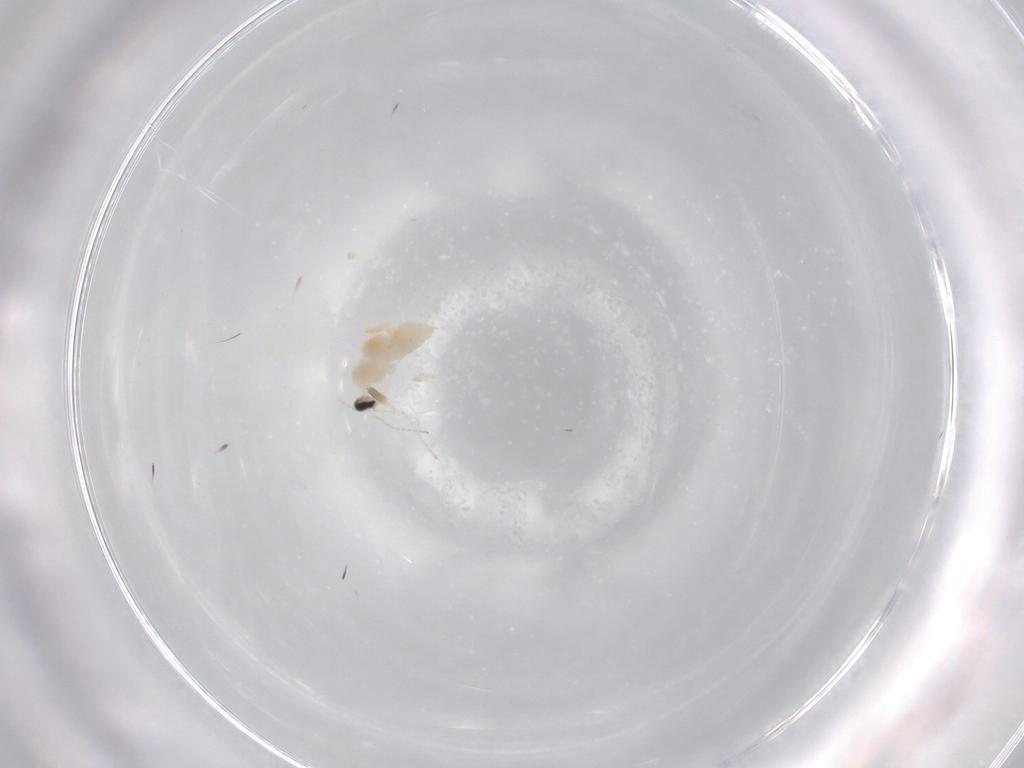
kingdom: Animalia
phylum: Arthropoda
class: Insecta
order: Diptera
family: Cecidomyiidae
